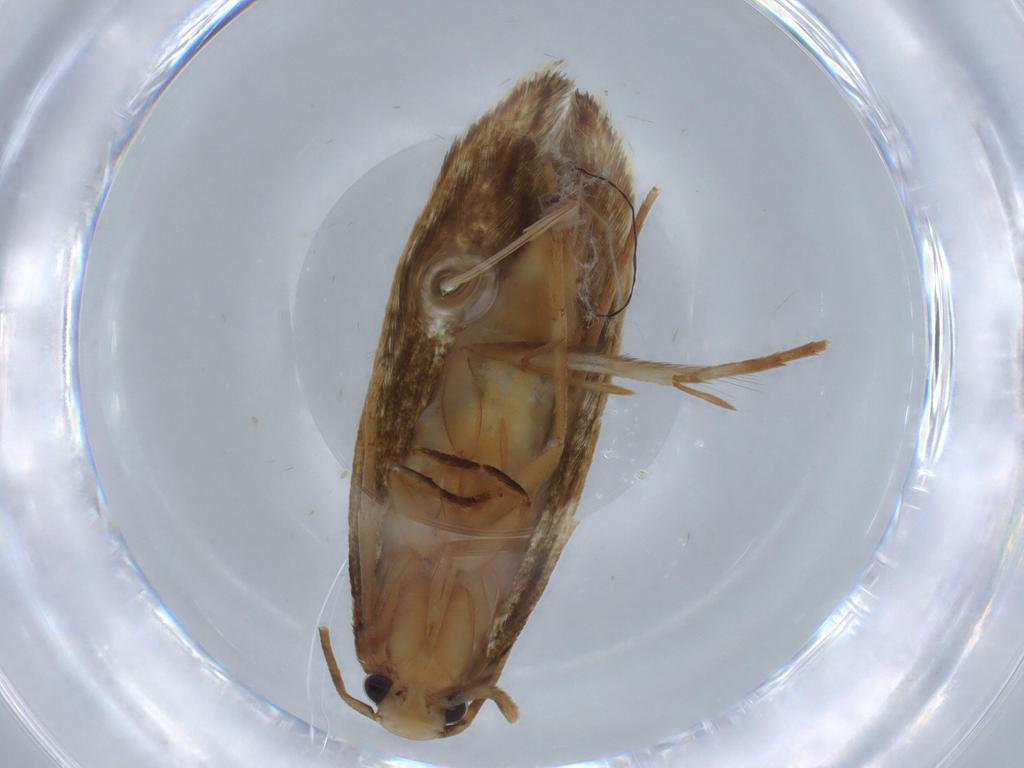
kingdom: Animalia
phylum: Arthropoda
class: Insecta
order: Lepidoptera
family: Tineidae
